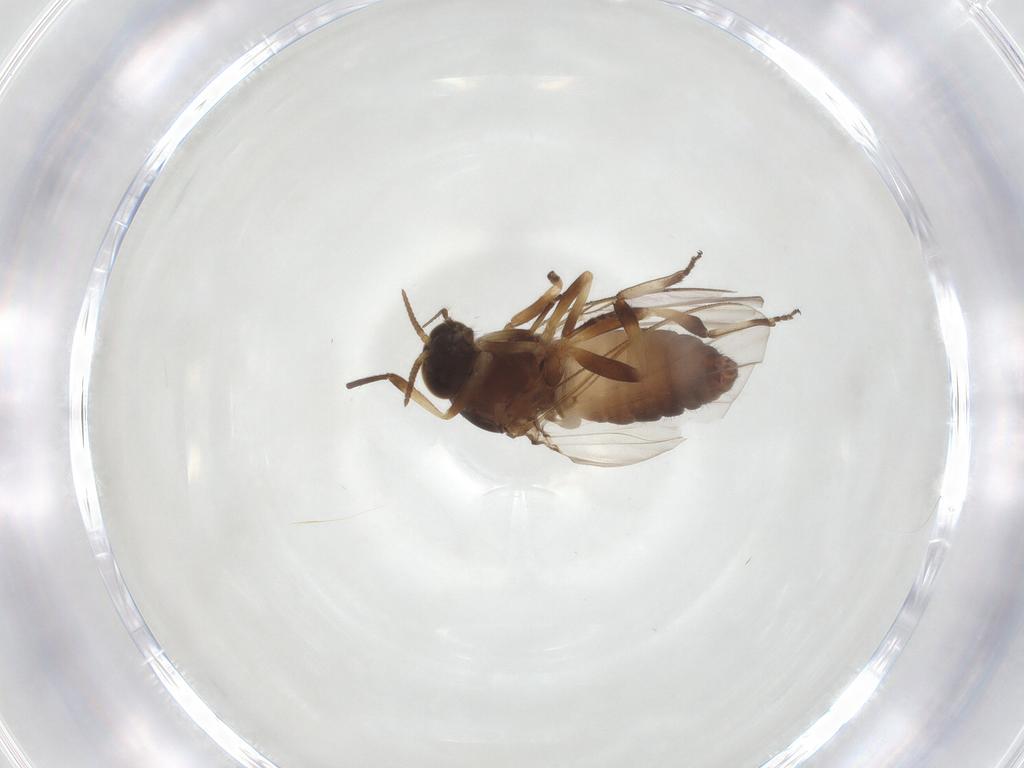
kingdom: Animalia
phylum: Arthropoda
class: Insecta
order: Diptera
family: Simuliidae
